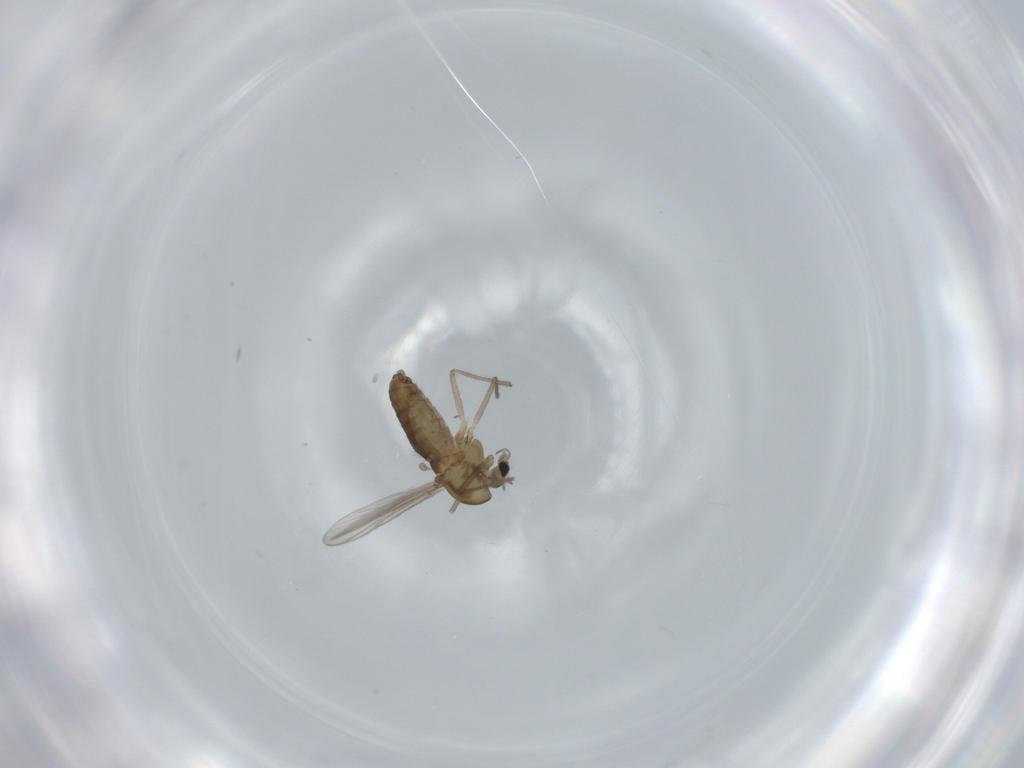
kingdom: Animalia
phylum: Arthropoda
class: Insecta
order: Diptera
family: Chironomidae
